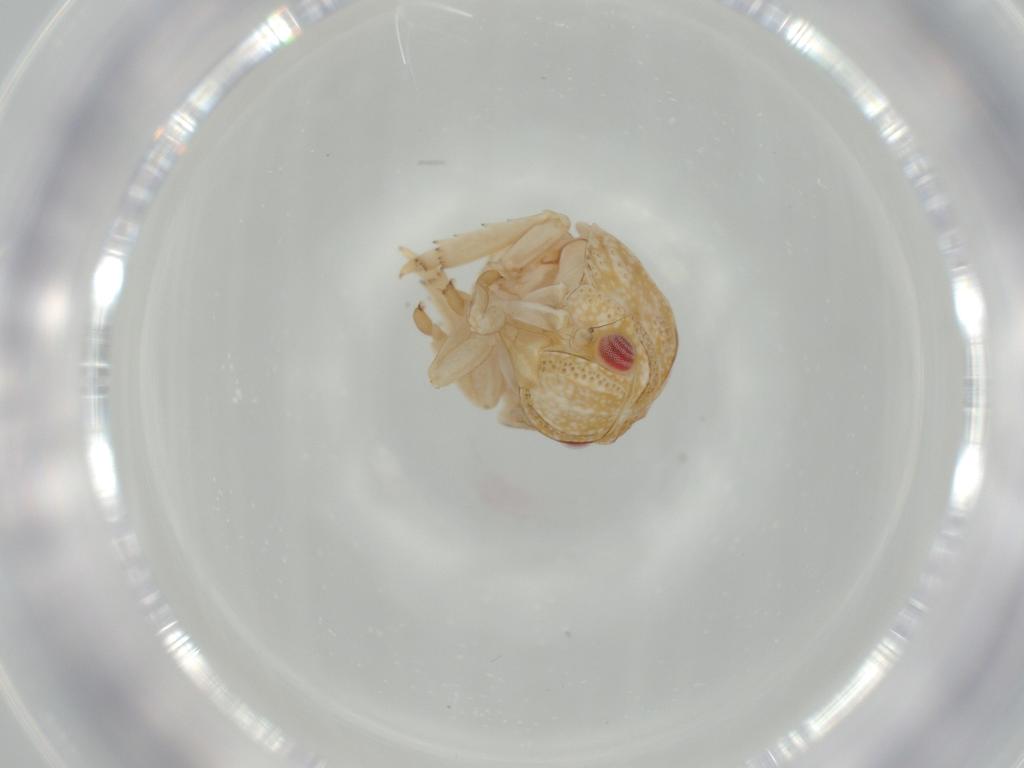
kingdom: Animalia
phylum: Arthropoda
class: Insecta
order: Hemiptera
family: Acanaloniidae
